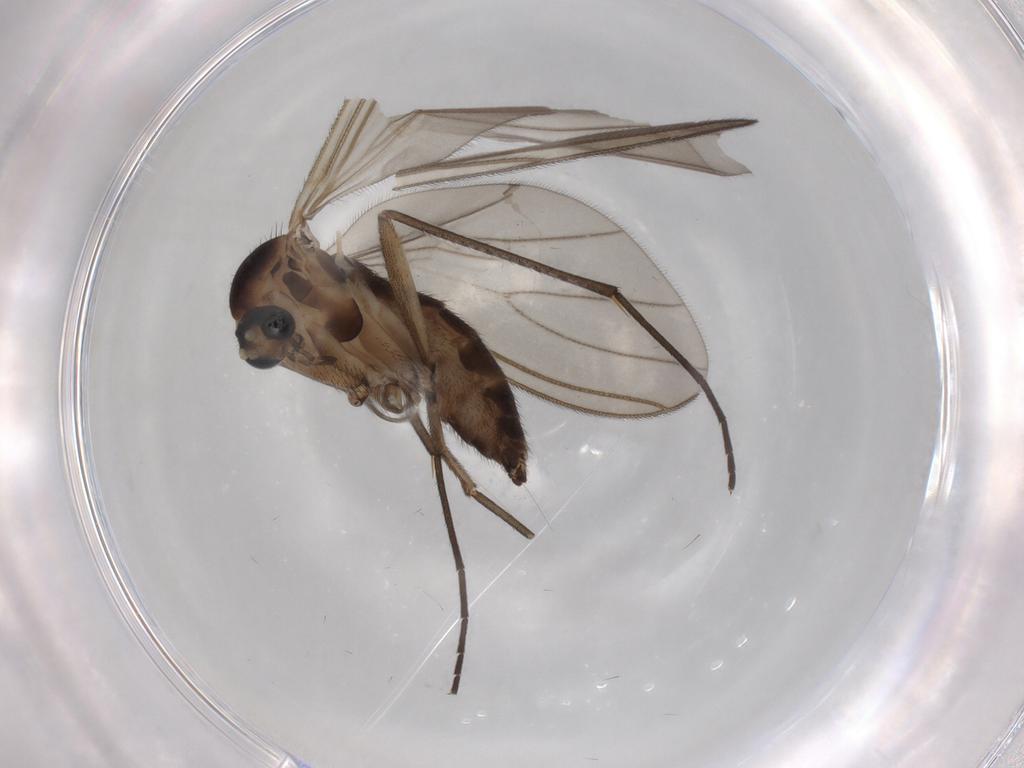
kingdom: Animalia
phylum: Arthropoda
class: Insecta
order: Diptera
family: Sciaridae
